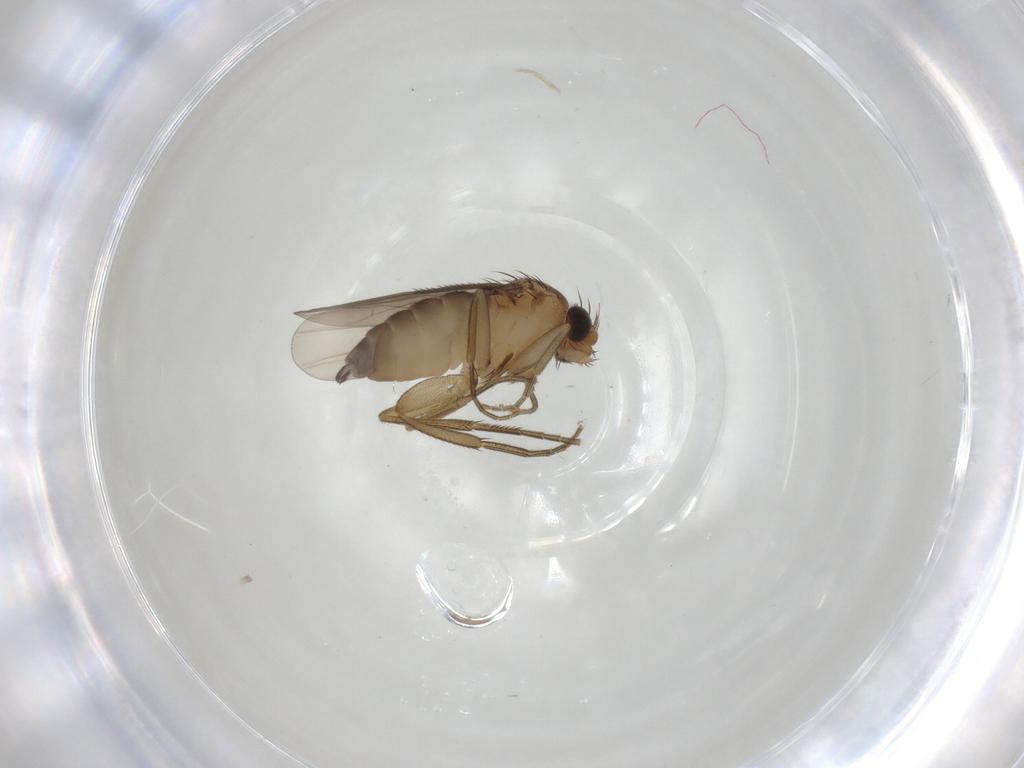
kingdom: Animalia
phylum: Arthropoda
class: Insecta
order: Diptera
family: Phoridae
